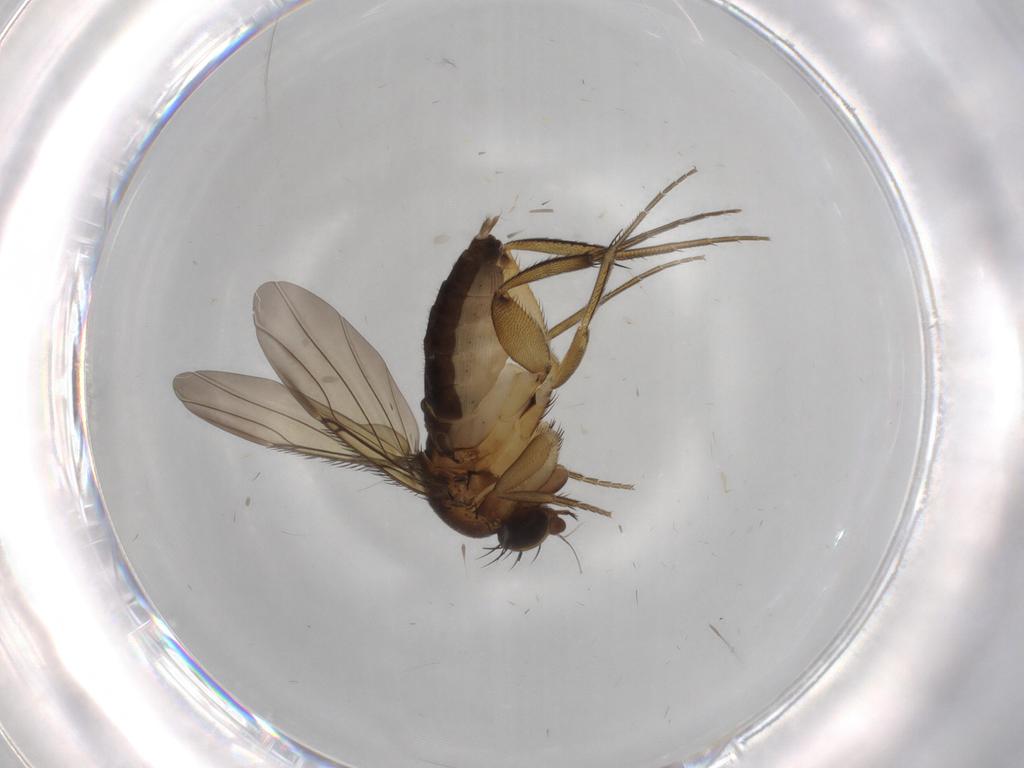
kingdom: Animalia
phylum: Arthropoda
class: Insecta
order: Diptera
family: Phoridae
